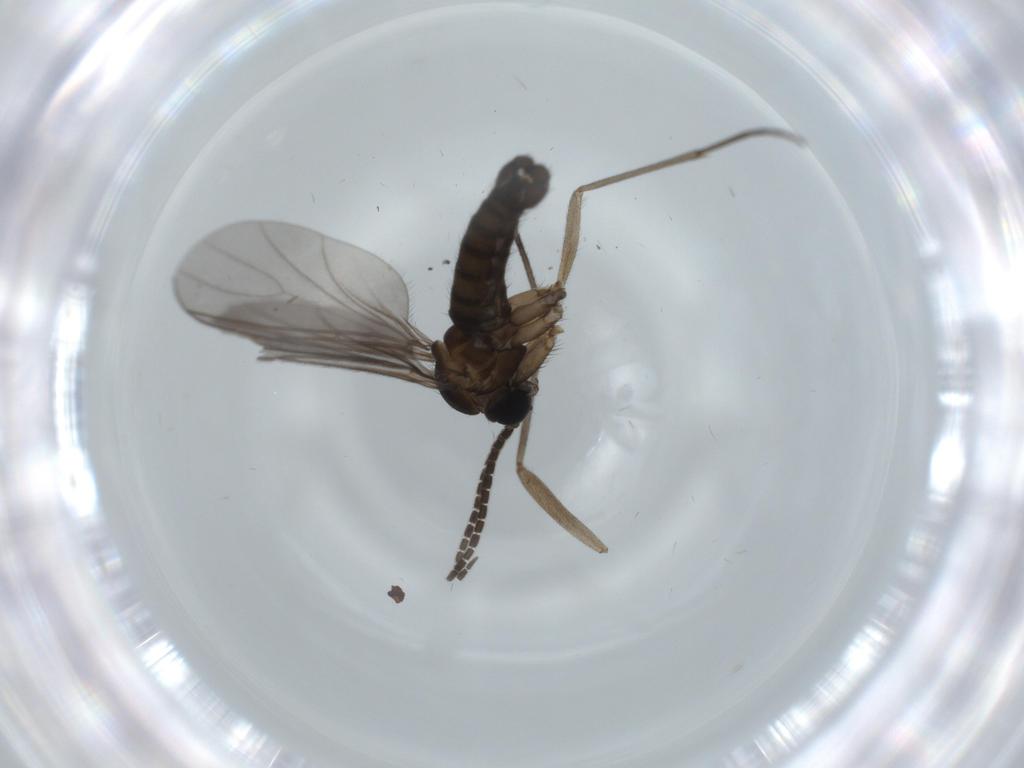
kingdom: Animalia
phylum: Arthropoda
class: Insecta
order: Diptera
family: Sciaridae
